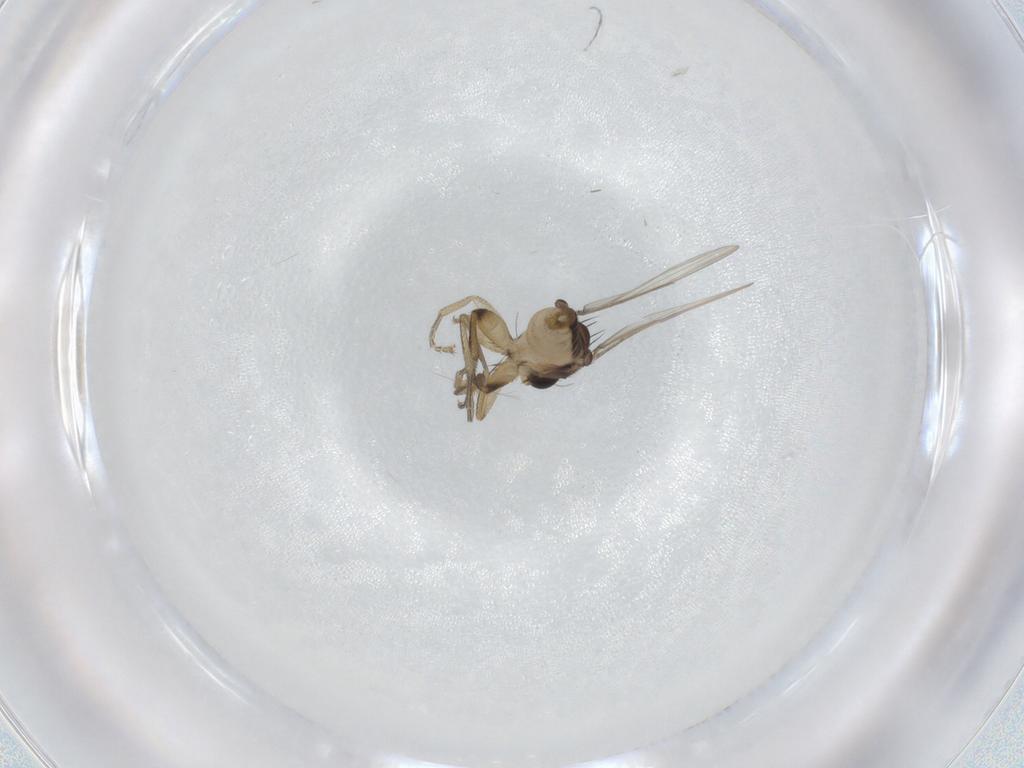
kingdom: Animalia
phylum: Arthropoda
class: Insecta
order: Diptera
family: Phoridae
